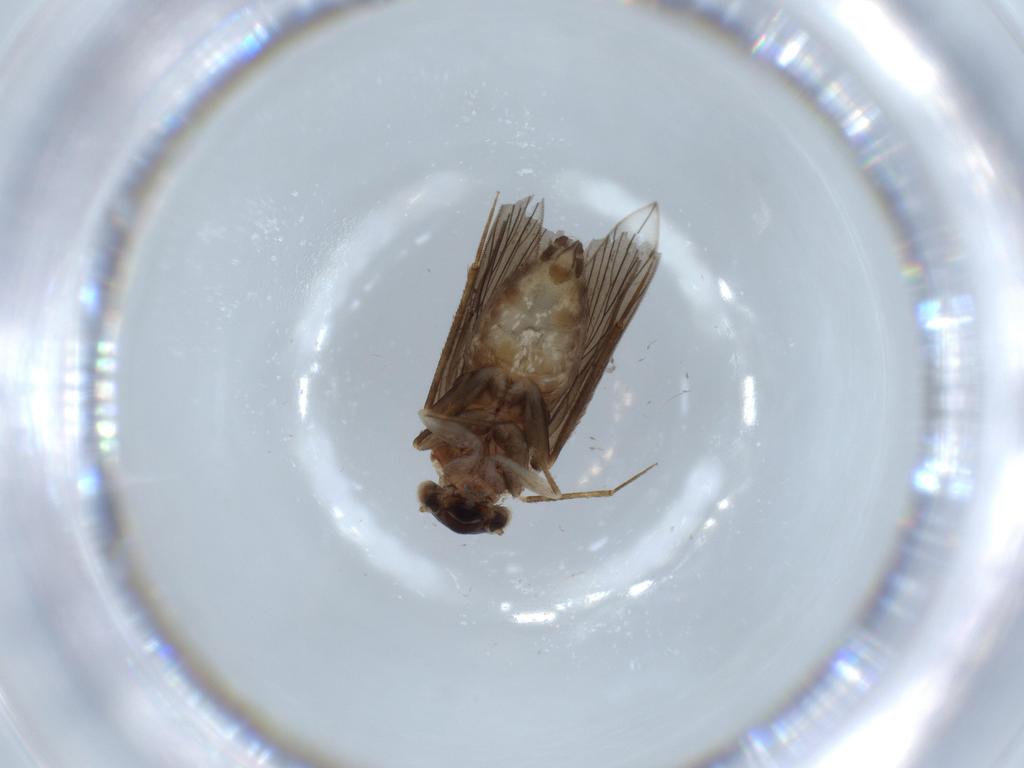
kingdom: Animalia
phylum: Arthropoda
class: Insecta
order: Psocodea
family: Lepidopsocidae
